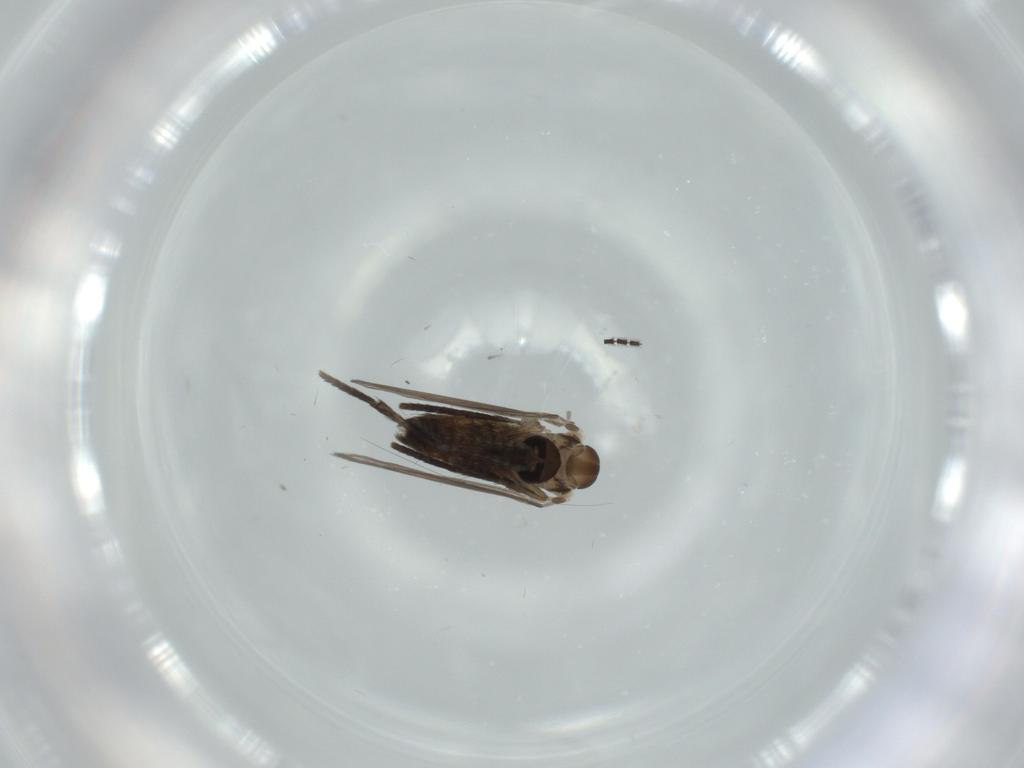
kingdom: Animalia
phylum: Arthropoda
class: Insecta
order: Diptera
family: Psychodidae
